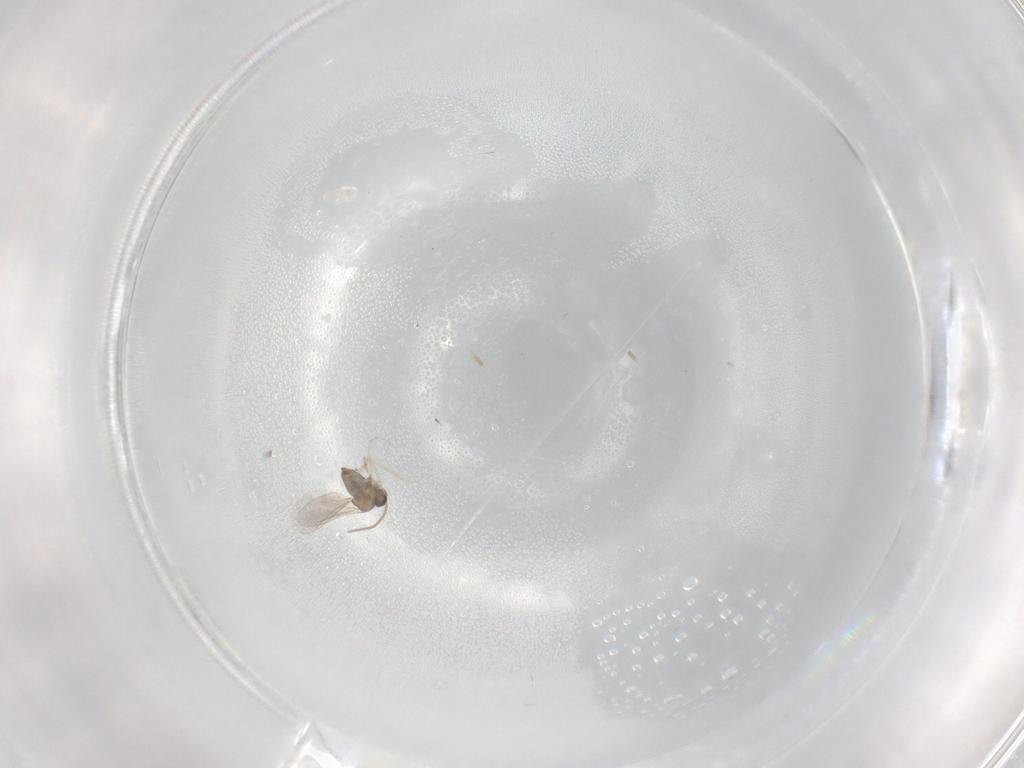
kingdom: Animalia
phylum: Arthropoda
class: Insecta
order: Diptera
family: Cecidomyiidae
